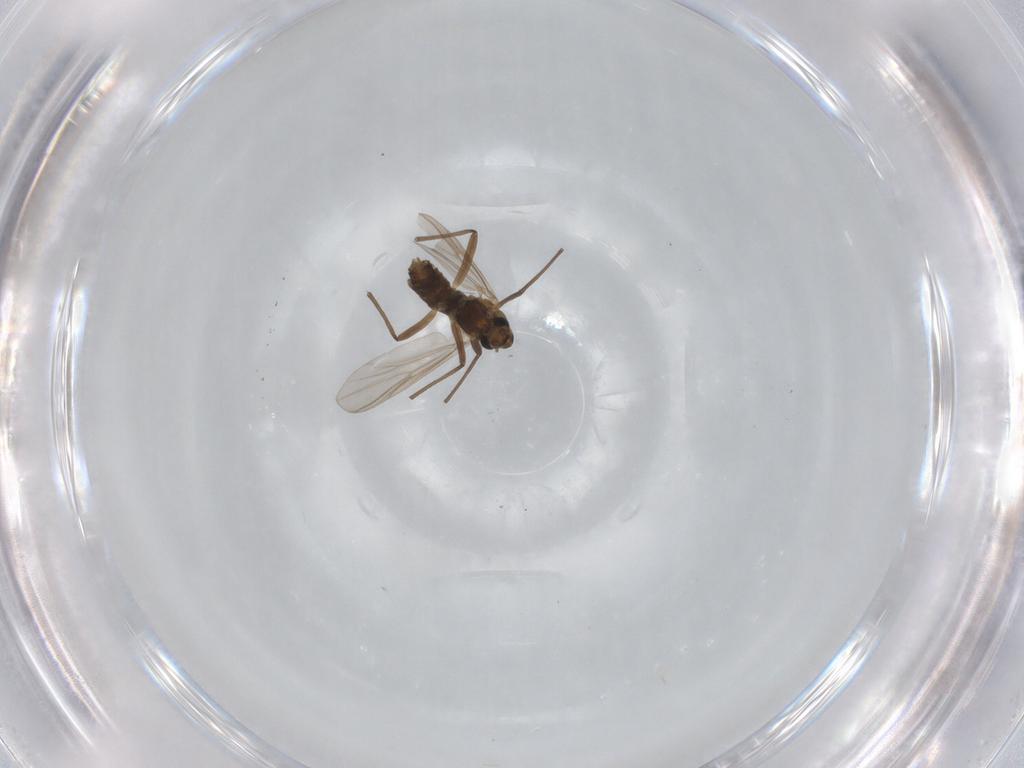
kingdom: Animalia
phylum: Arthropoda
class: Insecta
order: Diptera
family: Chironomidae
